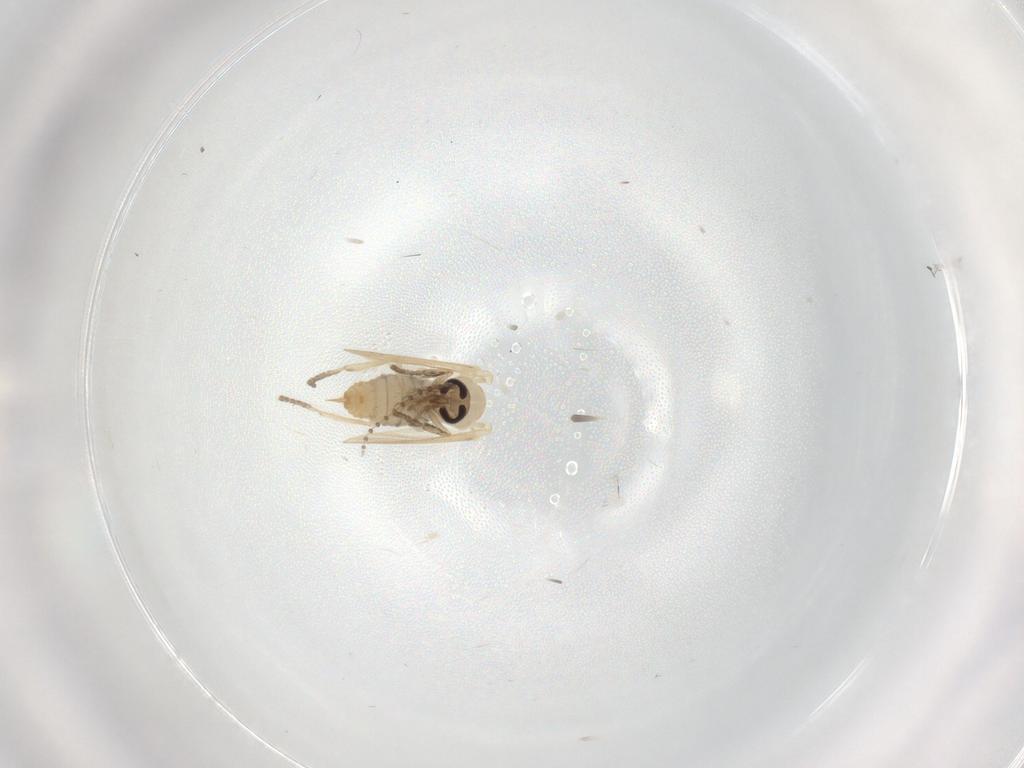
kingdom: Animalia
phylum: Arthropoda
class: Insecta
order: Diptera
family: Psychodidae
